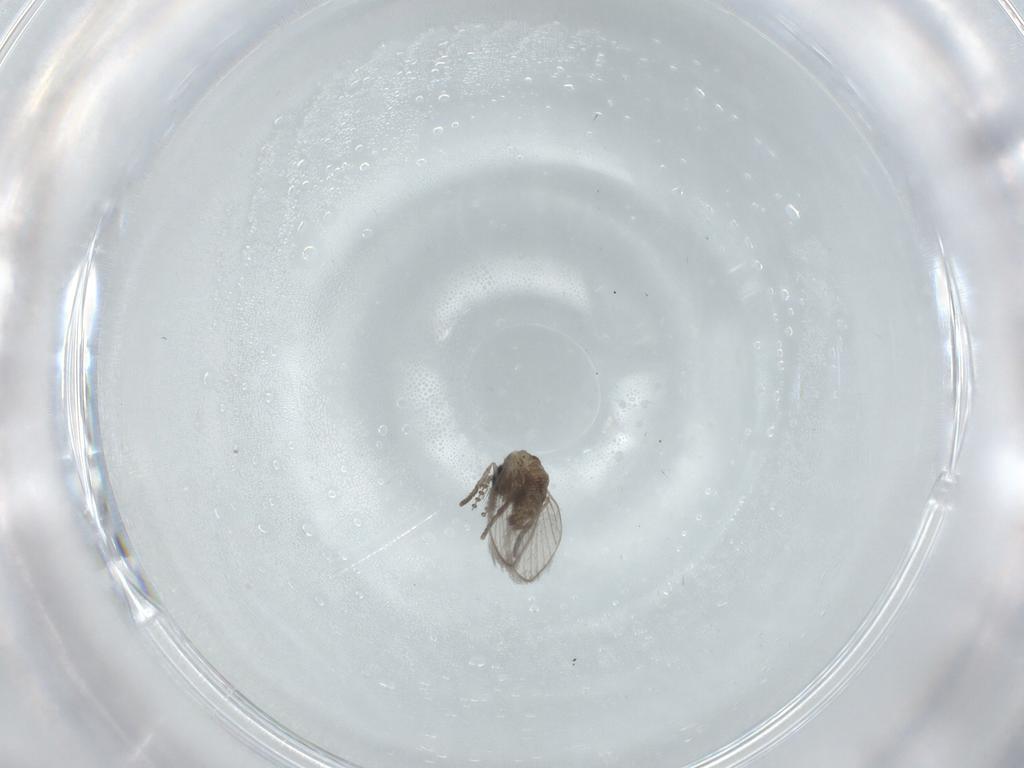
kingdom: Animalia
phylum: Arthropoda
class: Insecta
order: Diptera
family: Psychodidae
